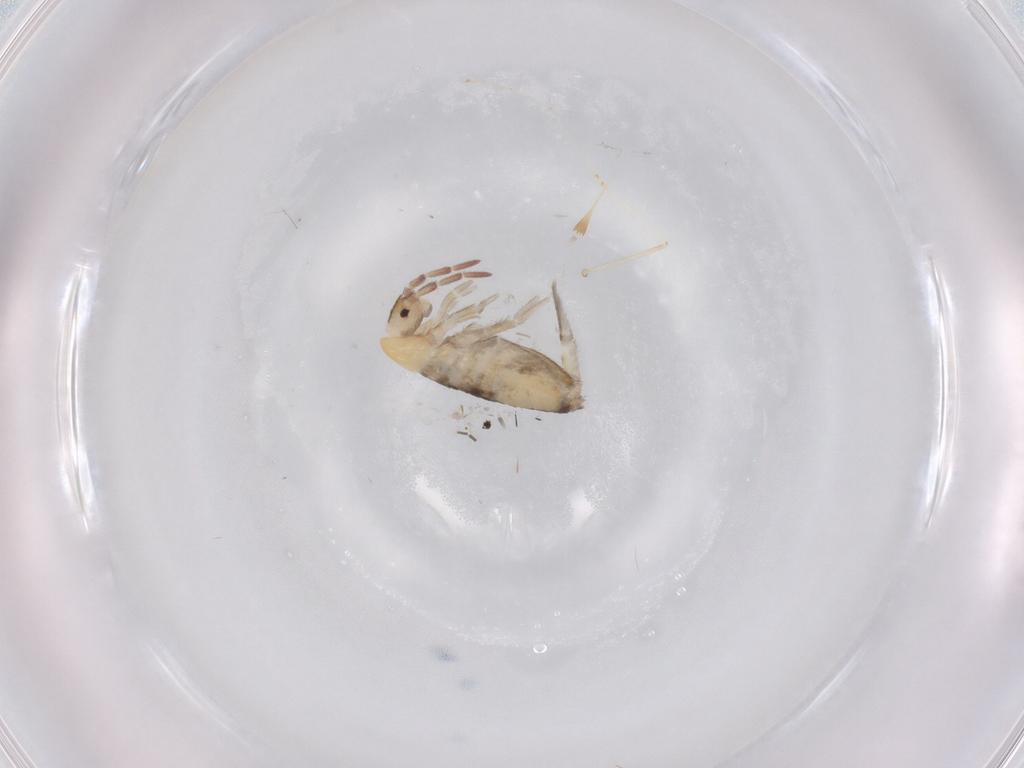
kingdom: Animalia
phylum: Arthropoda
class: Collembola
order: Entomobryomorpha
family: Entomobryidae
